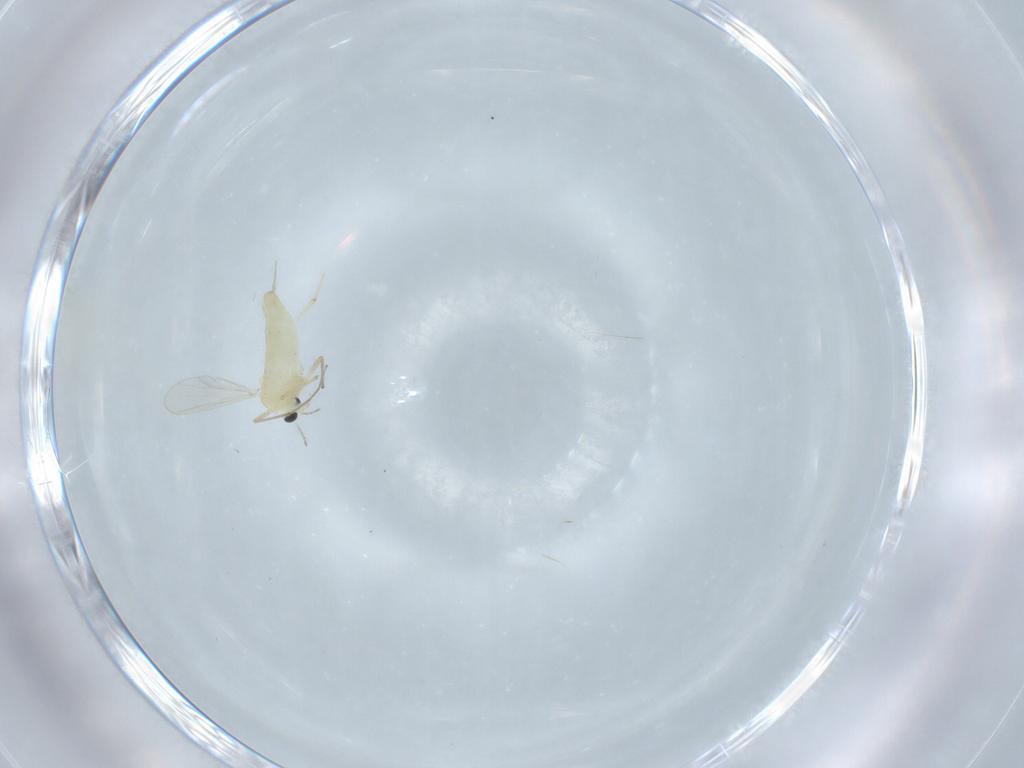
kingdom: Animalia
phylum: Arthropoda
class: Insecta
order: Diptera
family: Chironomidae
